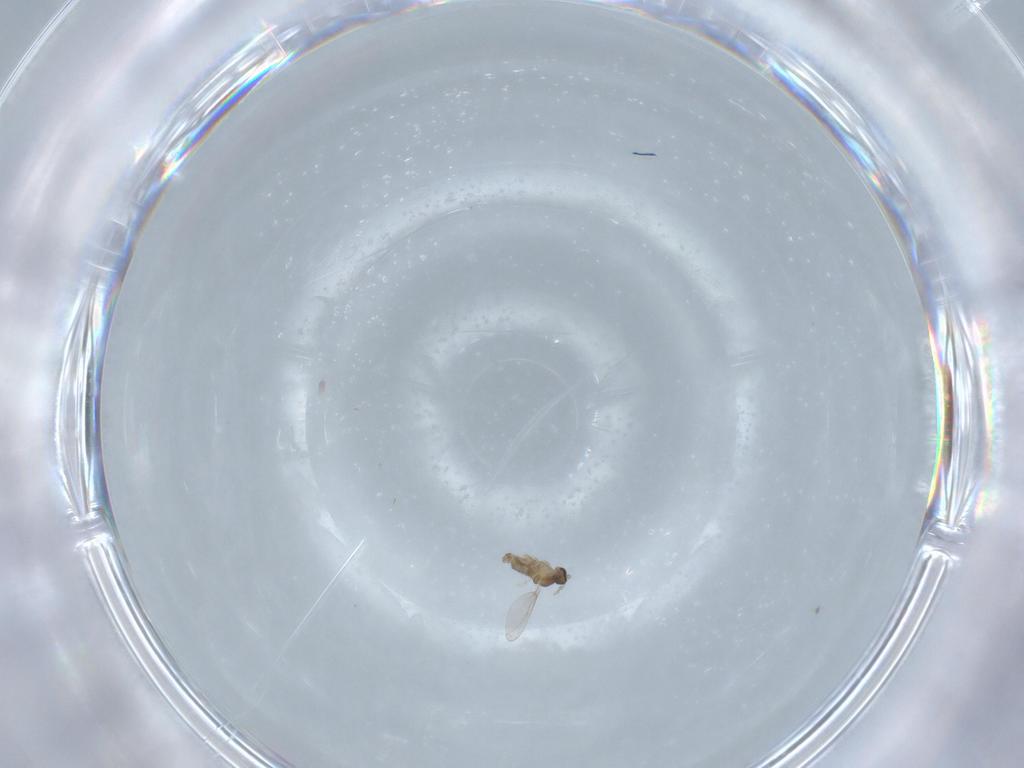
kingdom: Animalia
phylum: Arthropoda
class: Insecta
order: Diptera
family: Cecidomyiidae
